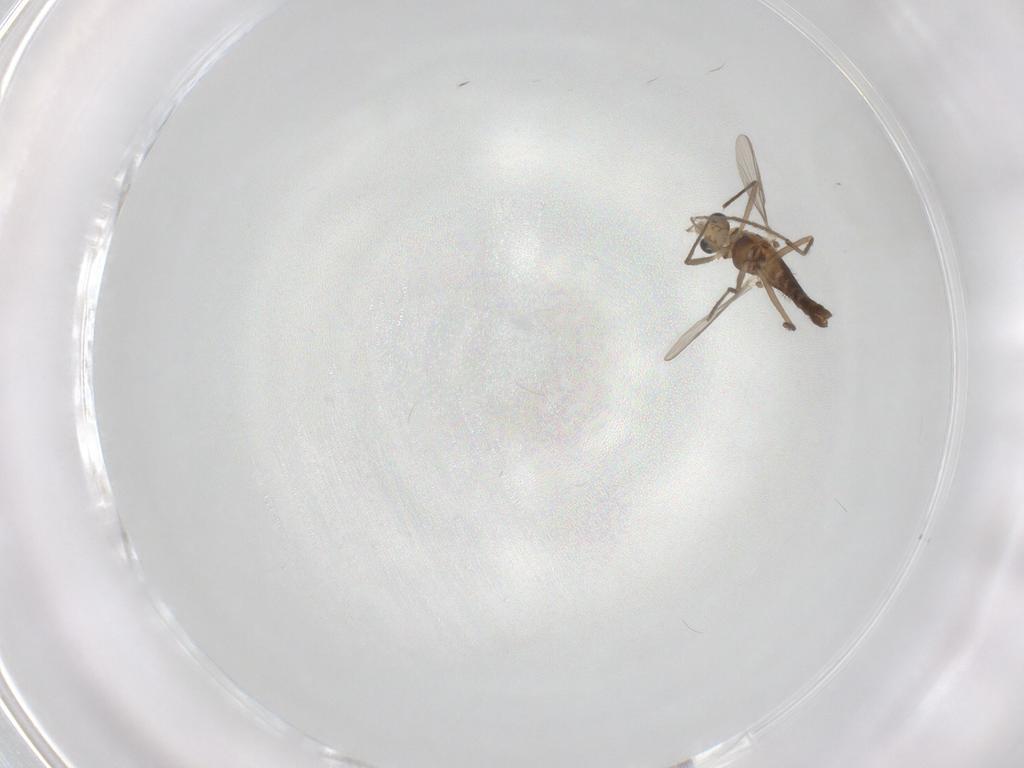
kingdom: Animalia
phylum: Arthropoda
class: Insecta
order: Diptera
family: Chironomidae
